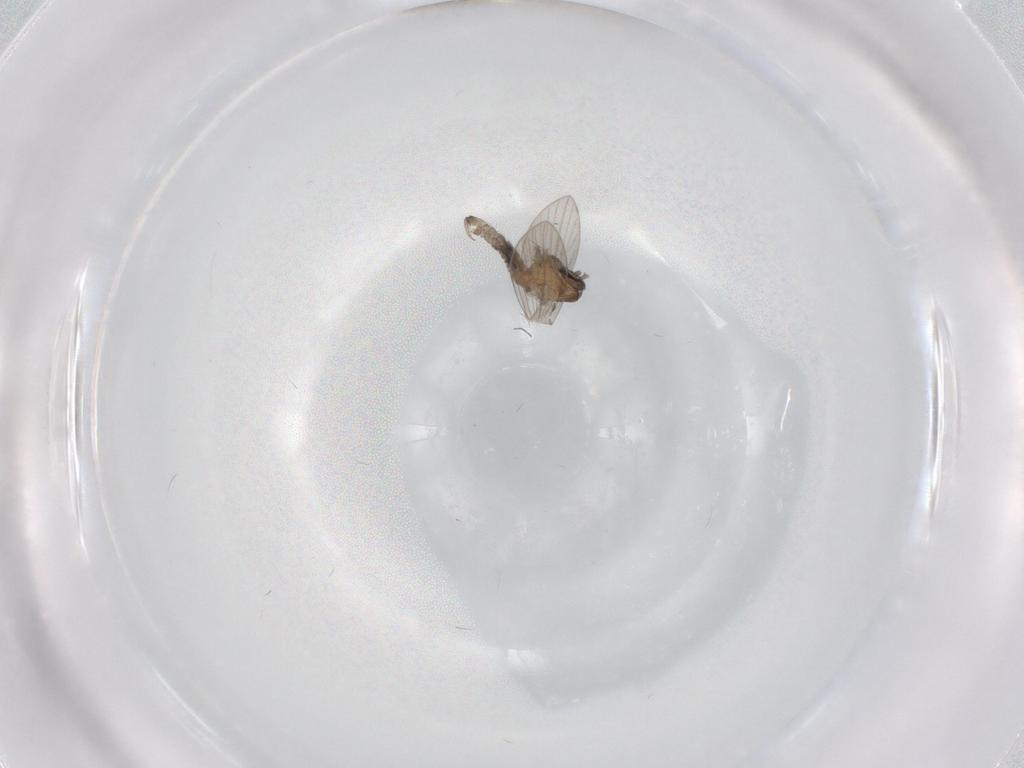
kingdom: Animalia
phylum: Arthropoda
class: Insecta
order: Diptera
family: Psychodidae
